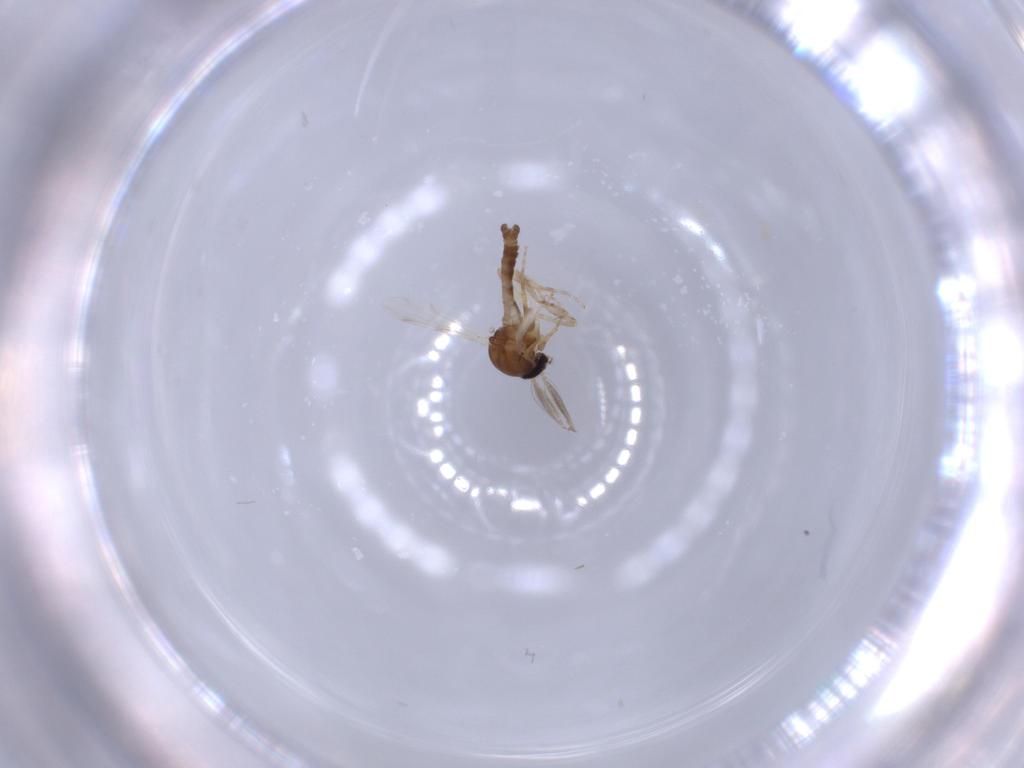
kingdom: Animalia
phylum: Arthropoda
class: Insecta
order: Diptera
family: Ceratopogonidae
